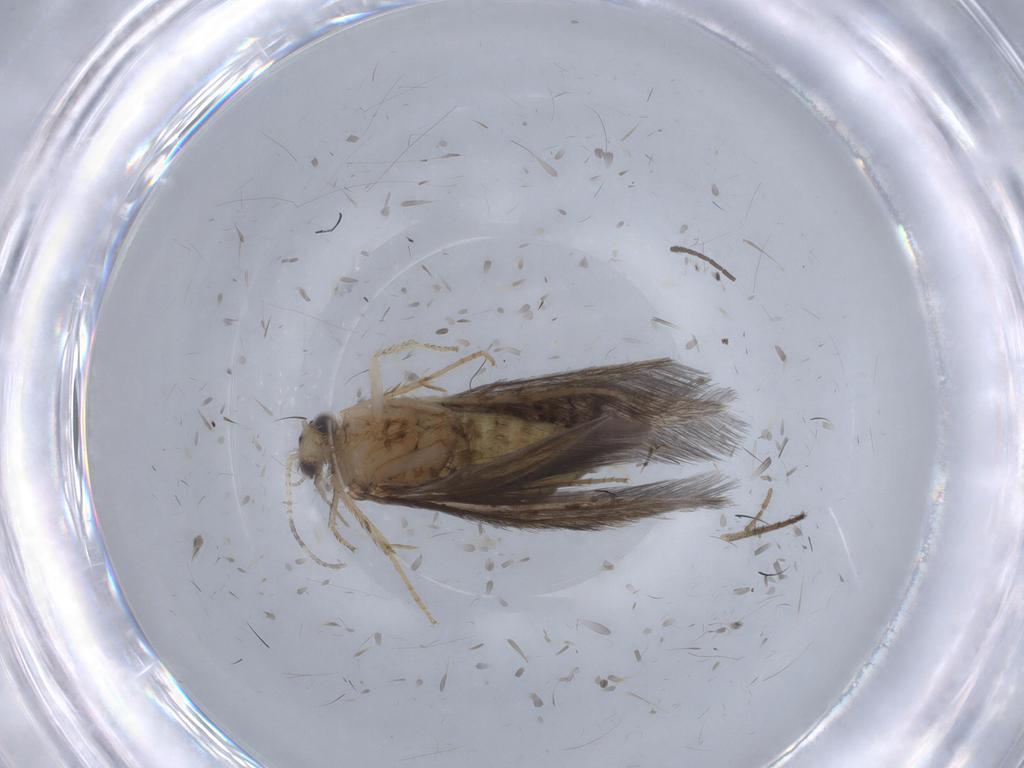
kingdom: Animalia
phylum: Arthropoda
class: Insecta
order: Trichoptera
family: Hydroptilidae
